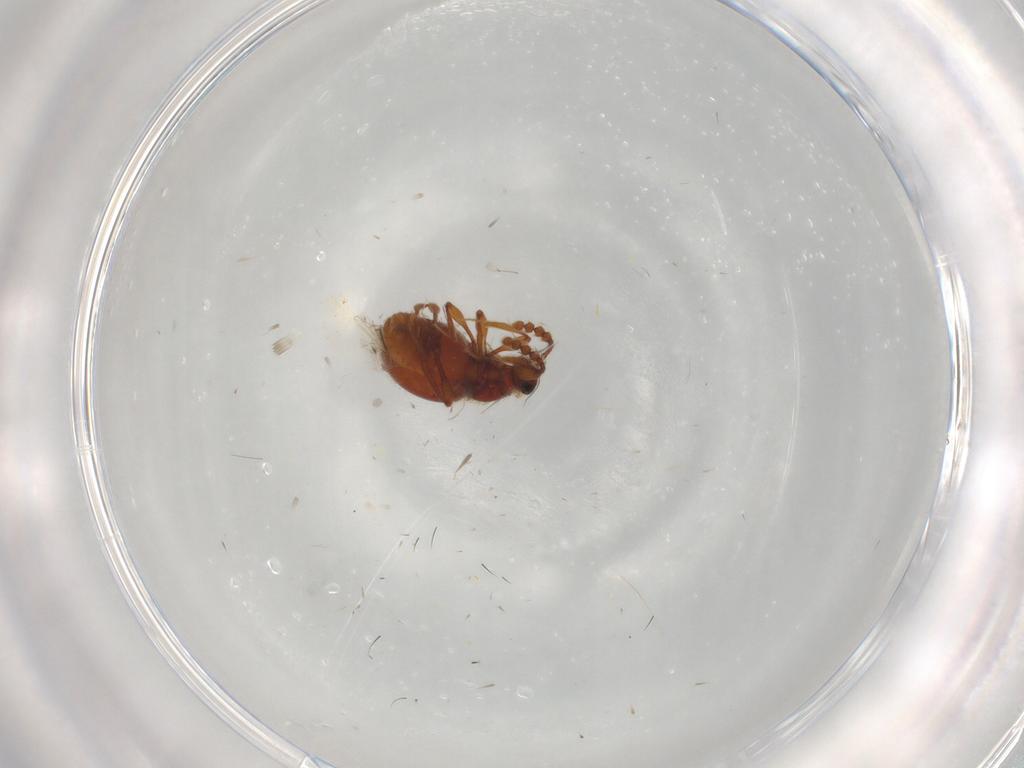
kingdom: Animalia
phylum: Arthropoda
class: Insecta
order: Coleoptera
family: Staphylinidae
